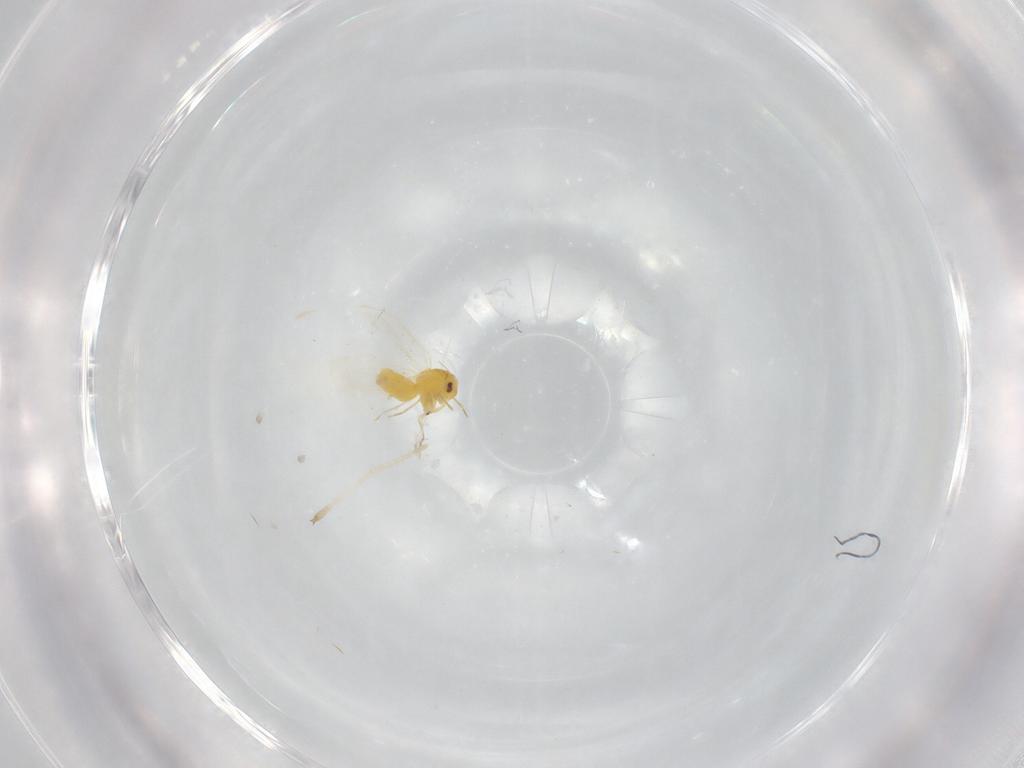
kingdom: Animalia
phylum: Arthropoda
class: Insecta
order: Hemiptera
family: Aleyrodidae
